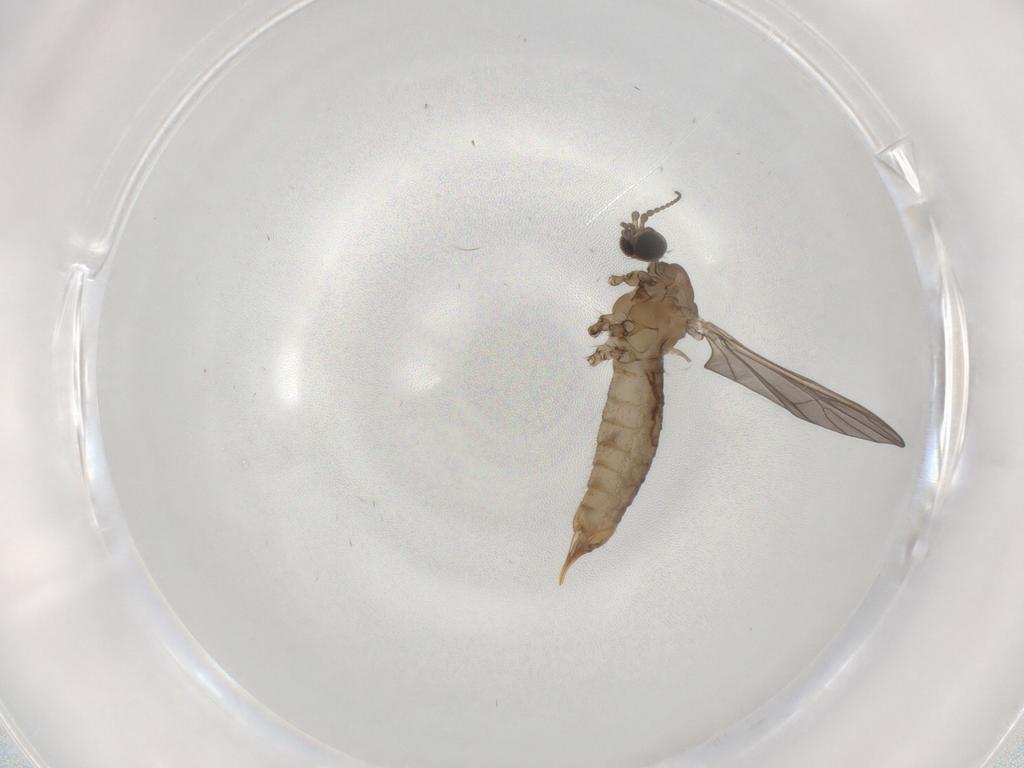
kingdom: Animalia
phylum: Arthropoda
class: Insecta
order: Diptera
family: Limoniidae
